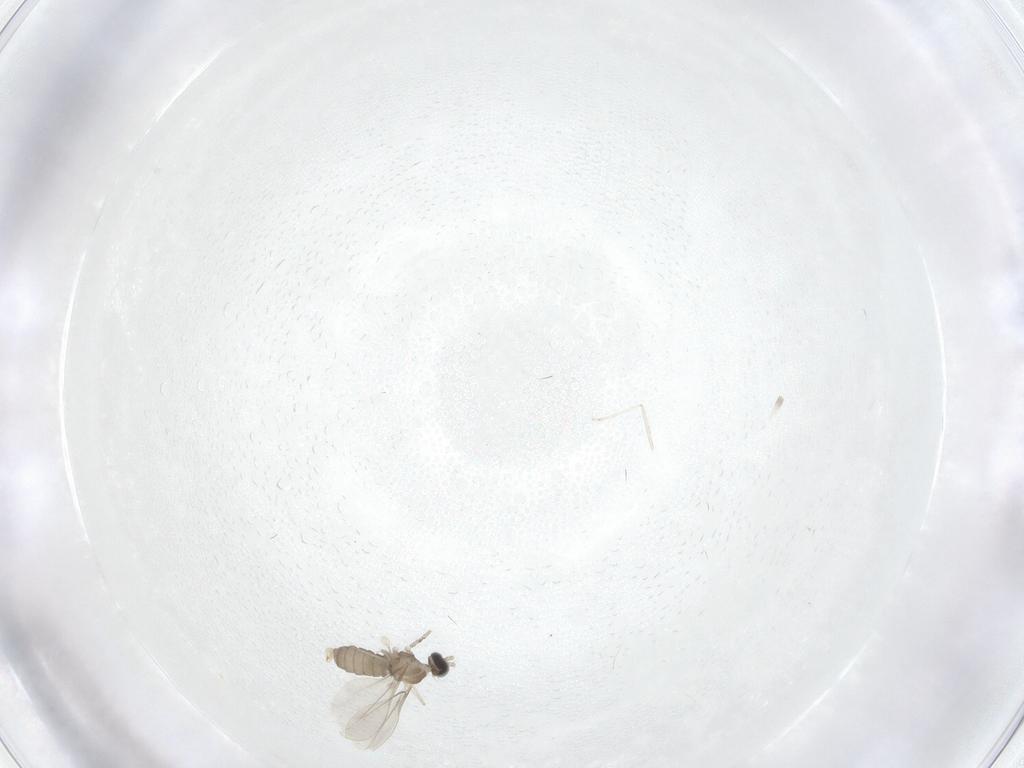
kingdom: Animalia
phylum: Arthropoda
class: Insecta
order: Diptera
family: Cecidomyiidae
